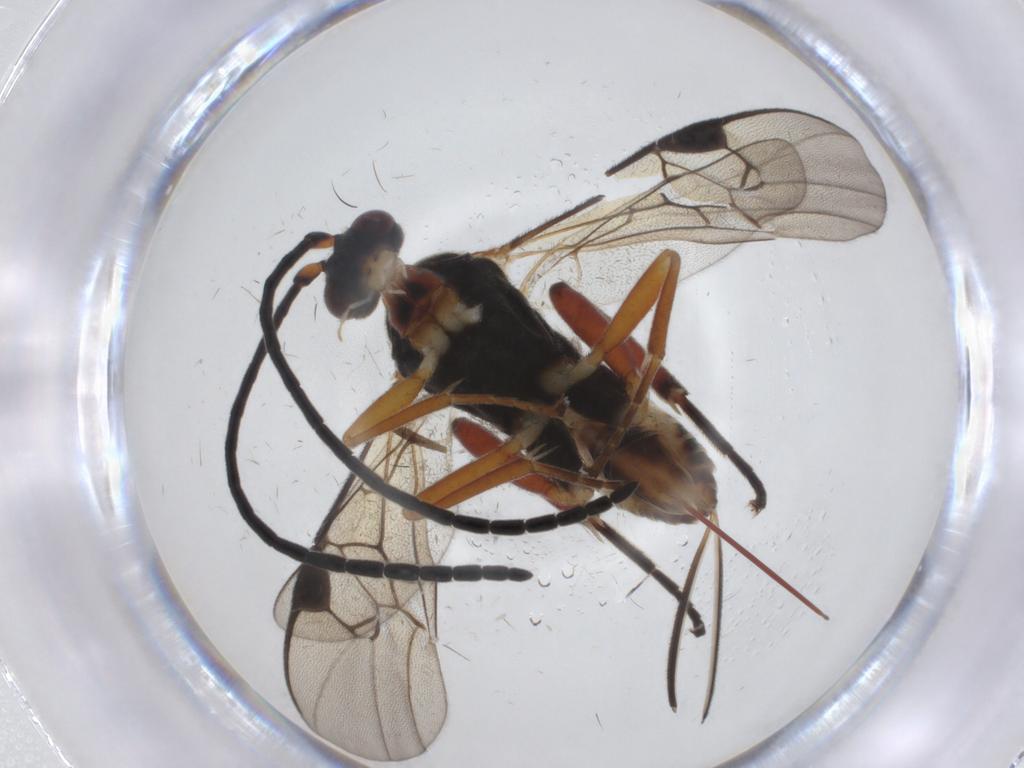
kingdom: Animalia
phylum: Arthropoda
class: Insecta
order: Lepidoptera
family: Tortricidae
